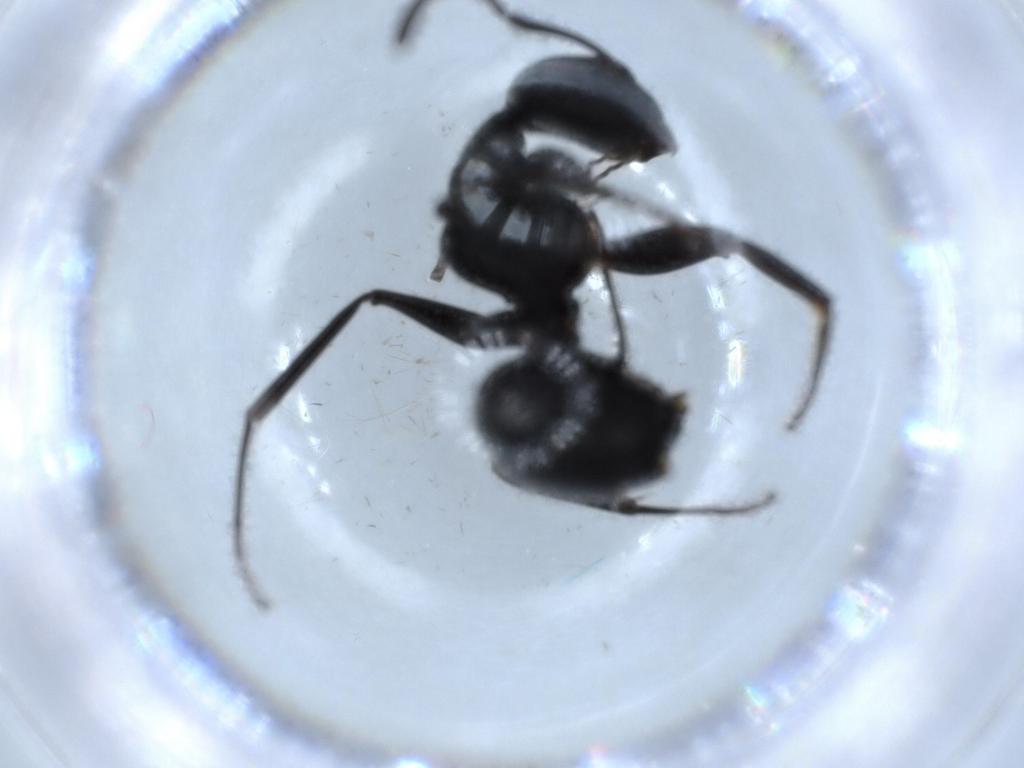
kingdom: Animalia
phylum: Arthropoda
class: Insecta
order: Hymenoptera
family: Formicidae
